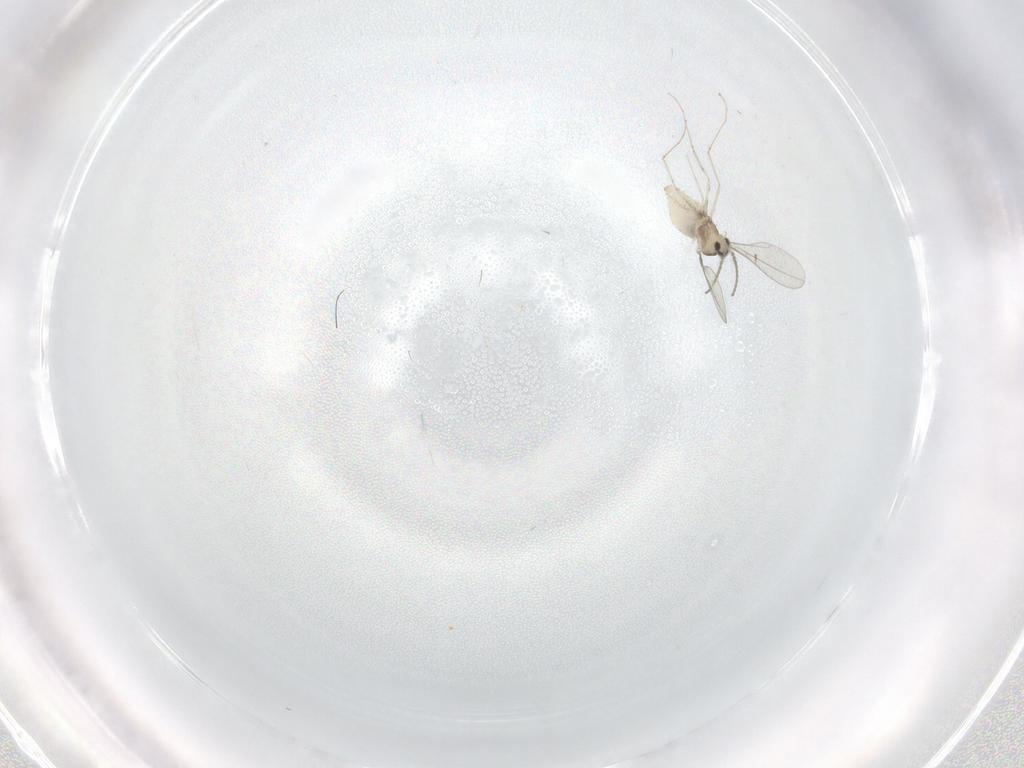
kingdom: Animalia
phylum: Arthropoda
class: Insecta
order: Diptera
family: Cecidomyiidae
